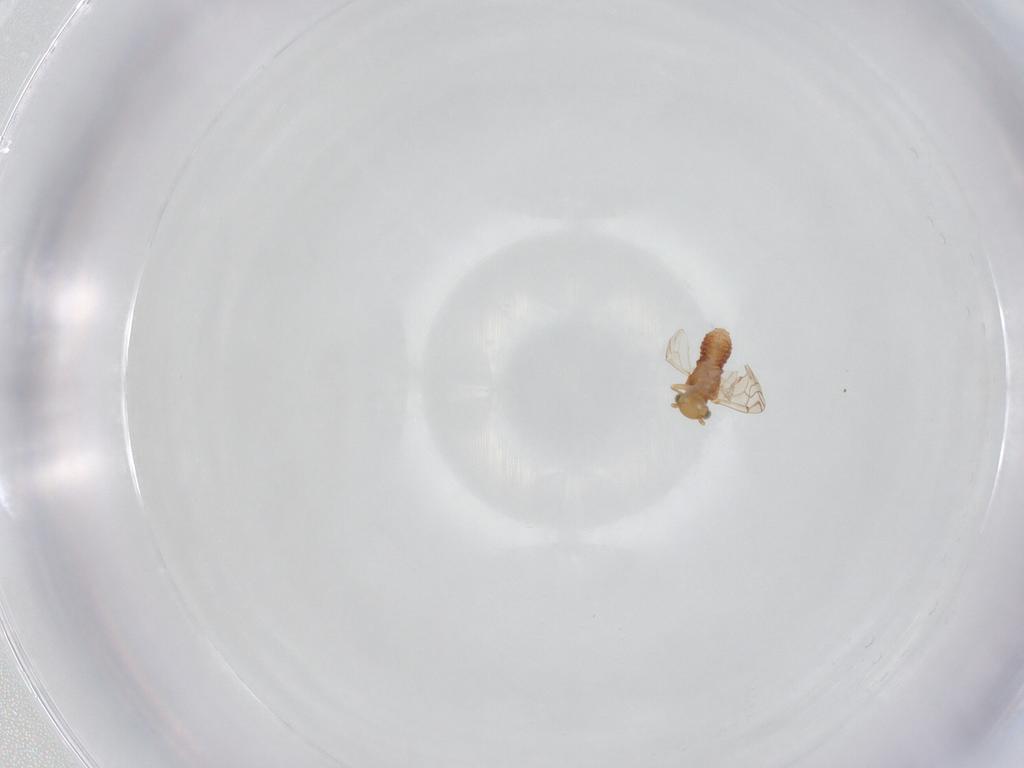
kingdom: Animalia
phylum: Arthropoda
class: Insecta
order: Psocodea
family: Lachesillidae
